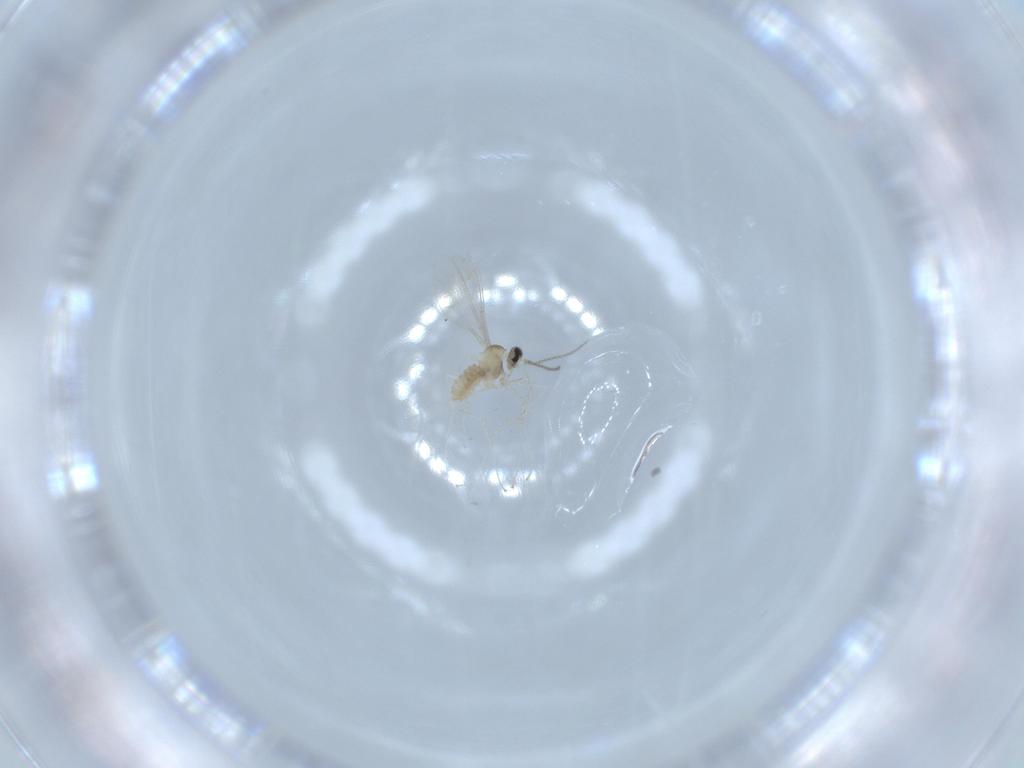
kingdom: Animalia
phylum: Arthropoda
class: Insecta
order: Diptera
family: Cecidomyiidae
